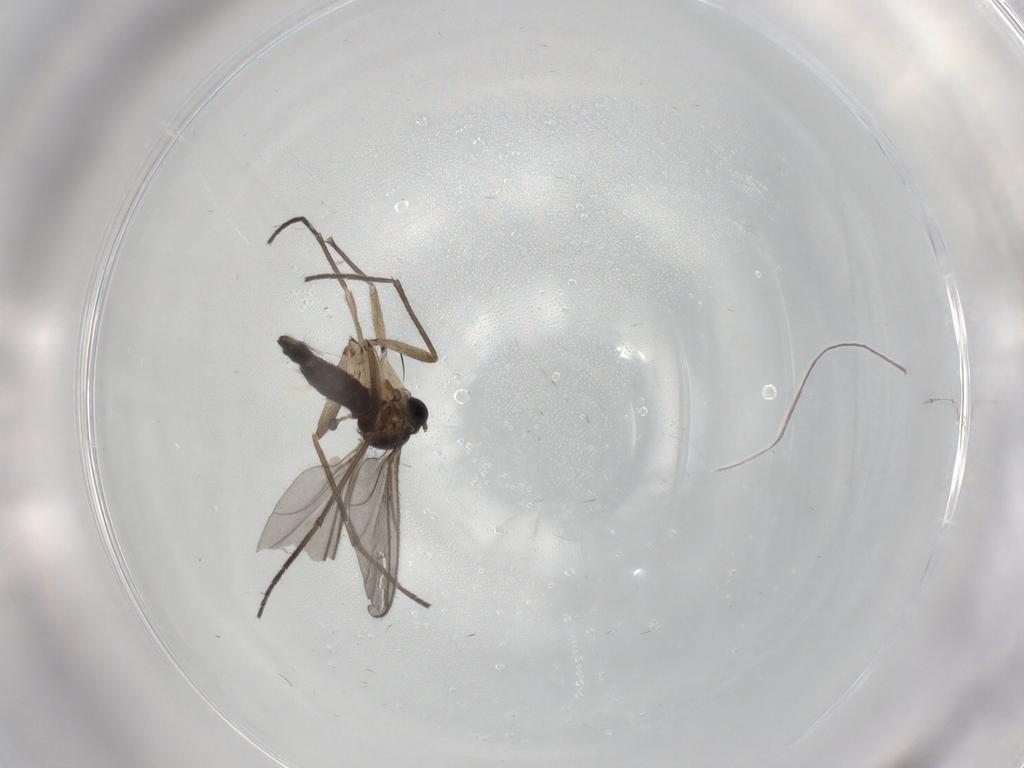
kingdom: Animalia
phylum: Arthropoda
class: Insecta
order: Diptera
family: Sciaridae
